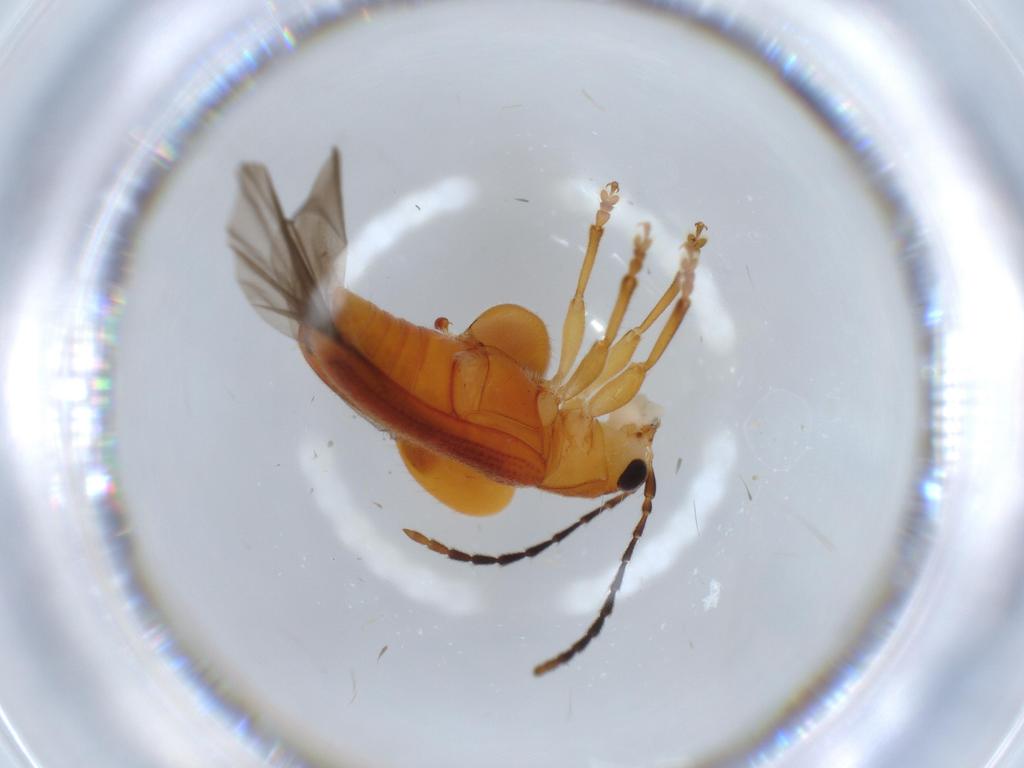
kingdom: Animalia
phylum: Arthropoda
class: Insecta
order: Coleoptera
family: Chrysomelidae
